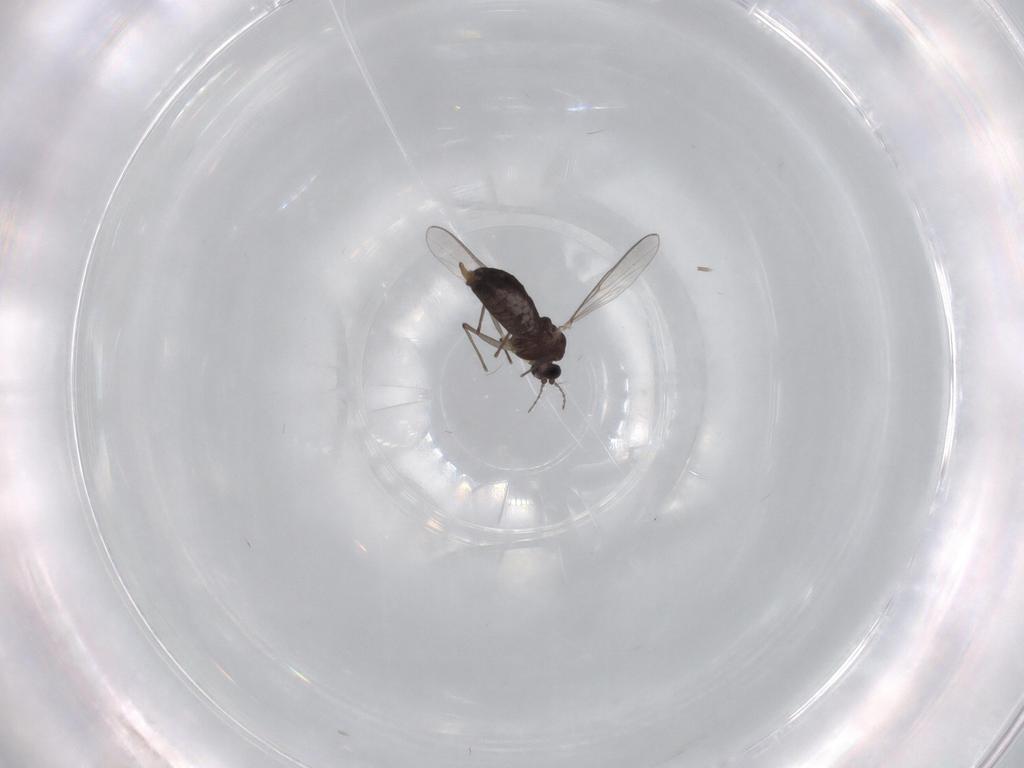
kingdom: Animalia
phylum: Arthropoda
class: Insecta
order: Diptera
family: Chironomidae
